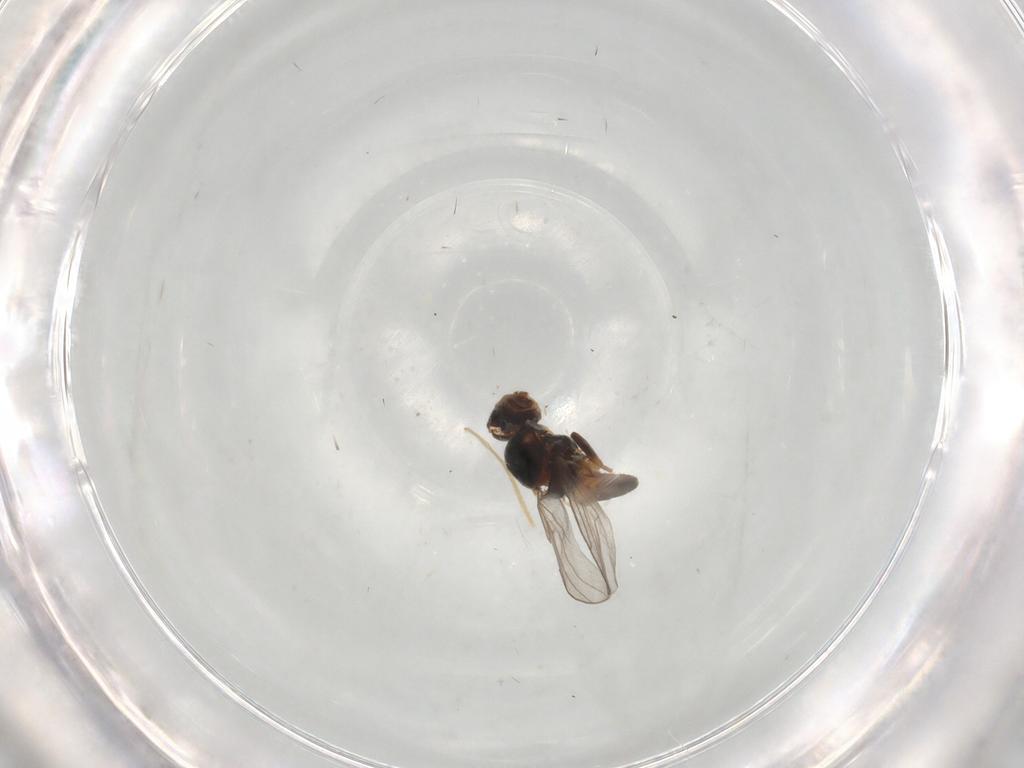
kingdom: Animalia
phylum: Arthropoda
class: Insecta
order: Diptera
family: Chloropidae
